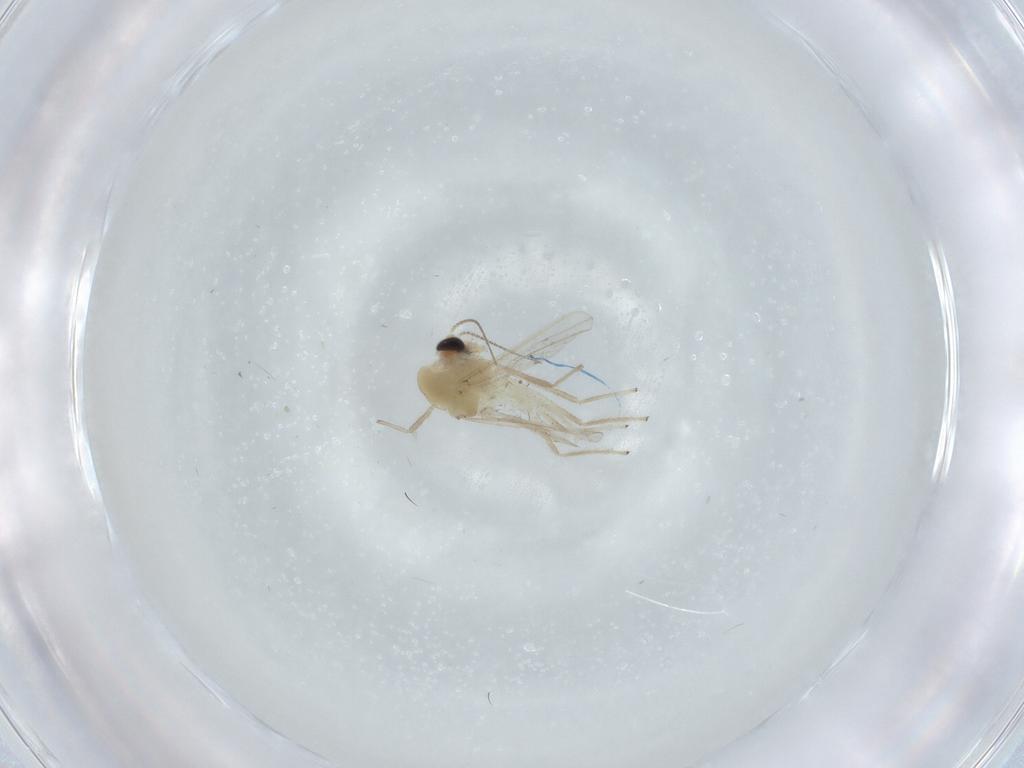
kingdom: Animalia
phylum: Arthropoda
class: Insecta
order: Diptera
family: Chironomidae
